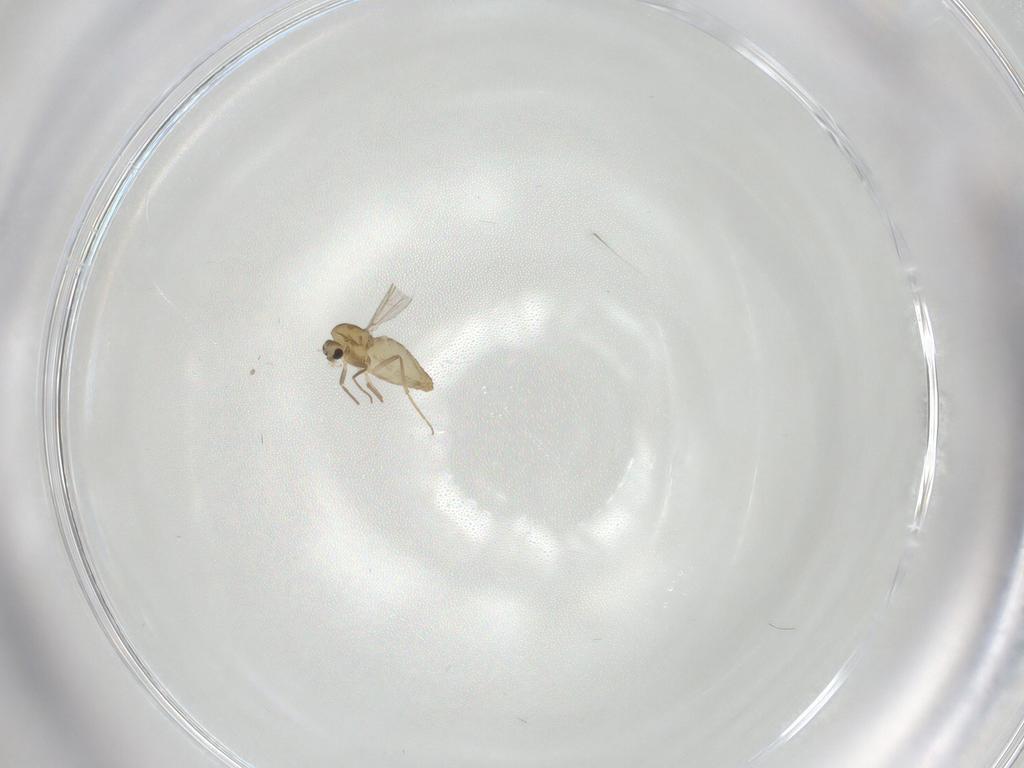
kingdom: Animalia
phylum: Arthropoda
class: Insecta
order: Diptera
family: Chironomidae
